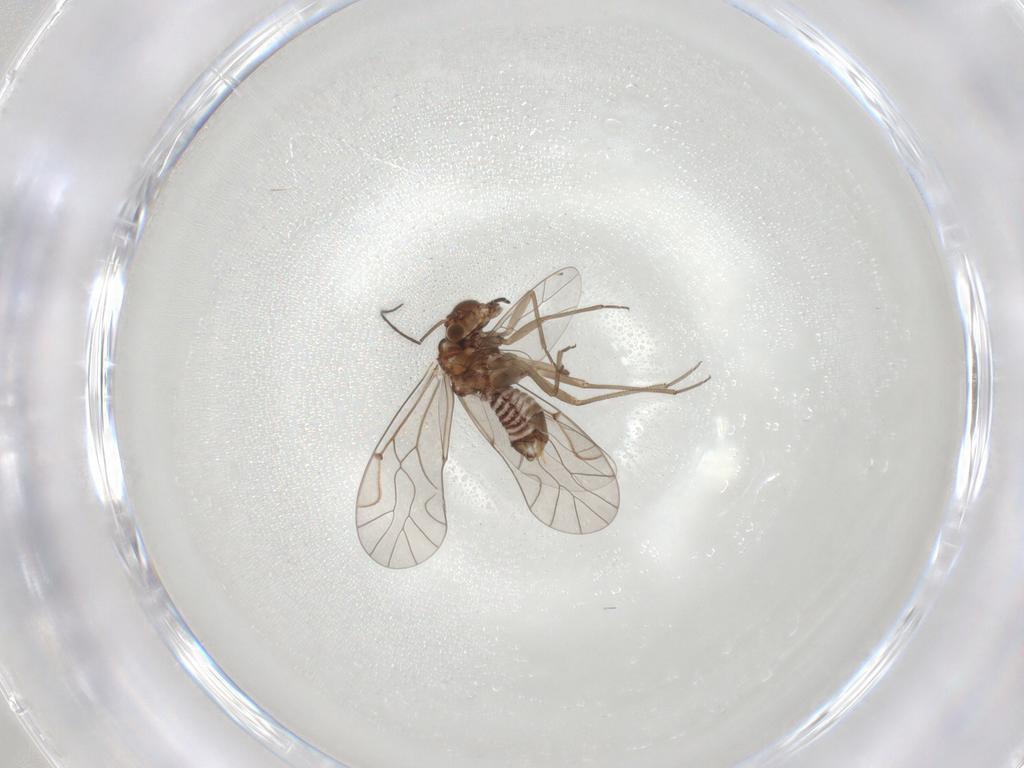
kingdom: Animalia
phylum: Arthropoda
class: Insecta
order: Psocodea
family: Lachesillidae
